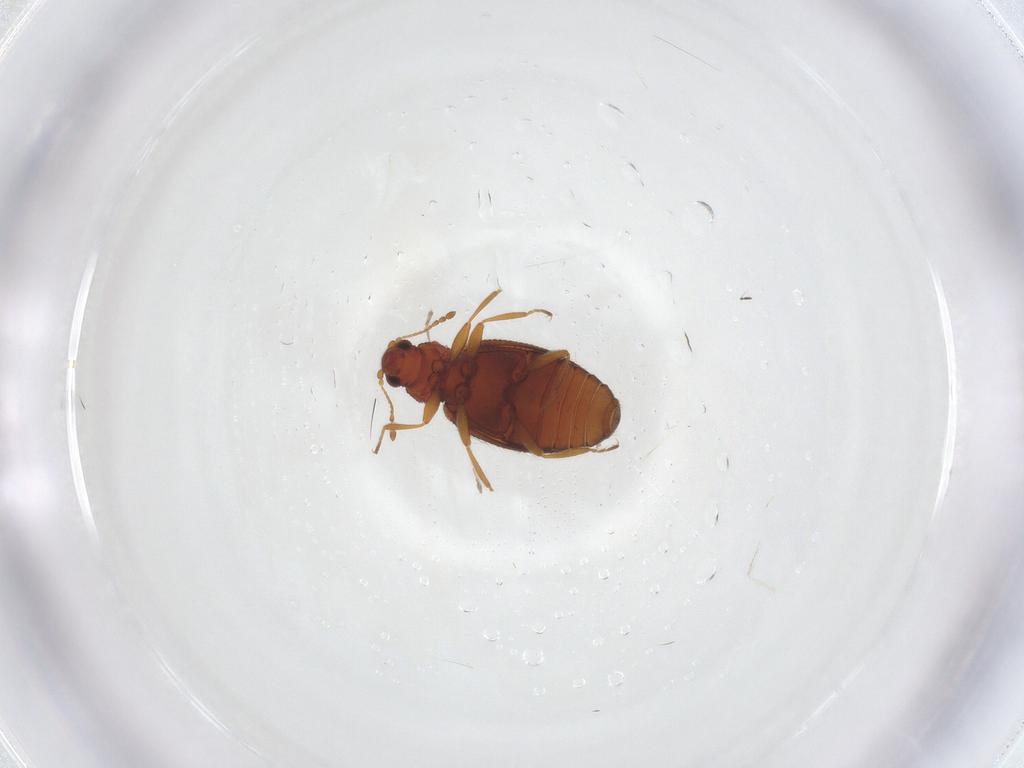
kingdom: Animalia
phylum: Arthropoda
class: Insecta
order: Coleoptera
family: Latridiidae
